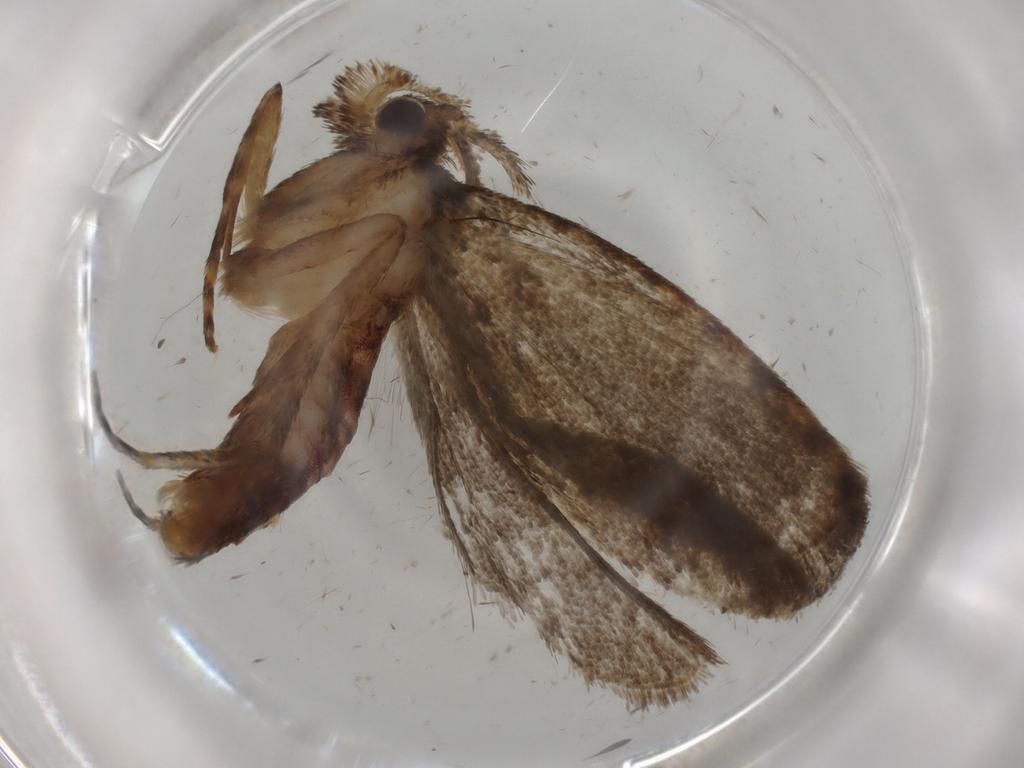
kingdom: Animalia
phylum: Arthropoda
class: Insecta
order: Lepidoptera
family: Tineidae
